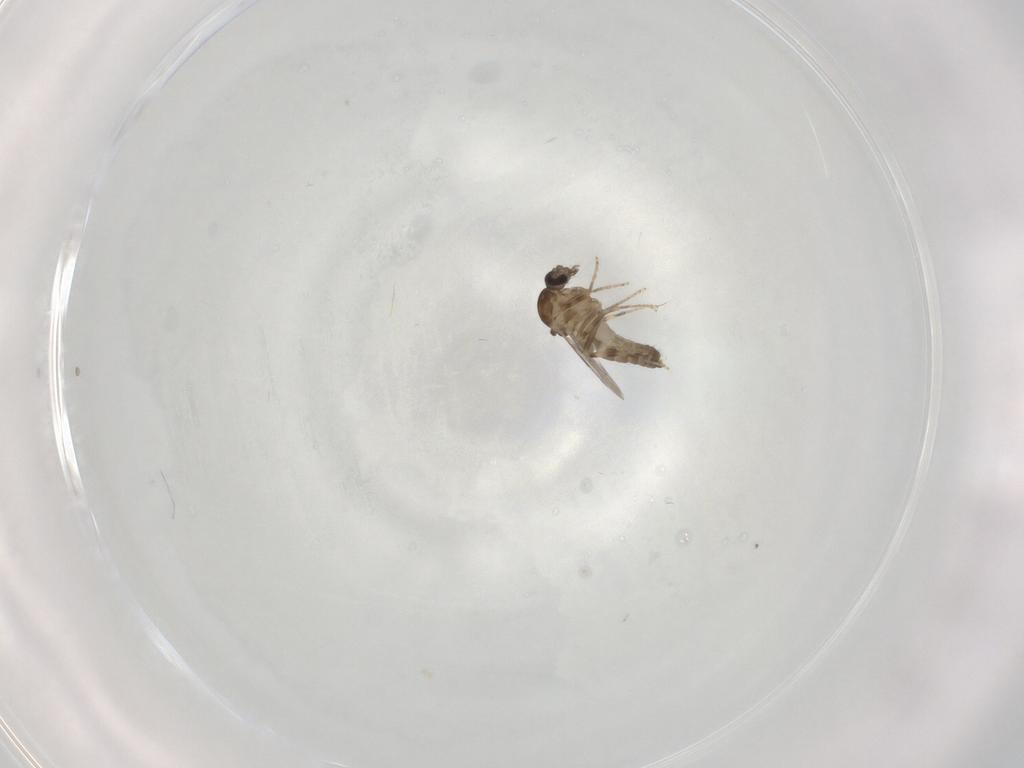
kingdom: Animalia
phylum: Arthropoda
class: Insecta
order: Diptera
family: Ceratopogonidae
